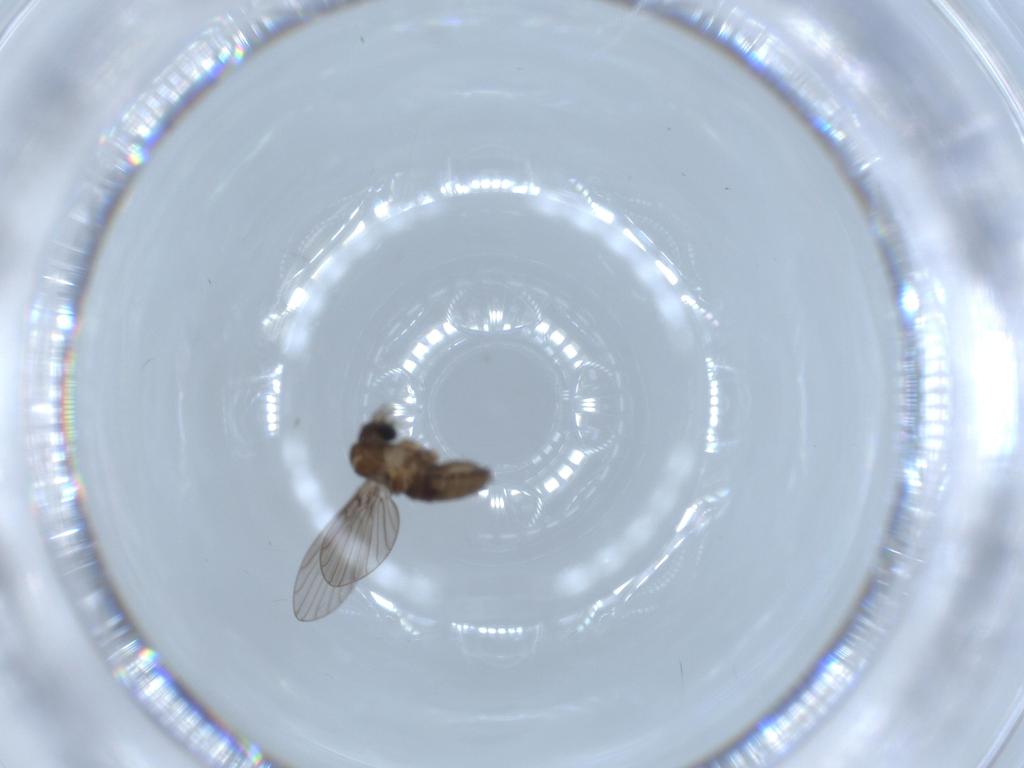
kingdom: Animalia
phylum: Arthropoda
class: Insecta
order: Diptera
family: Psychodidae
